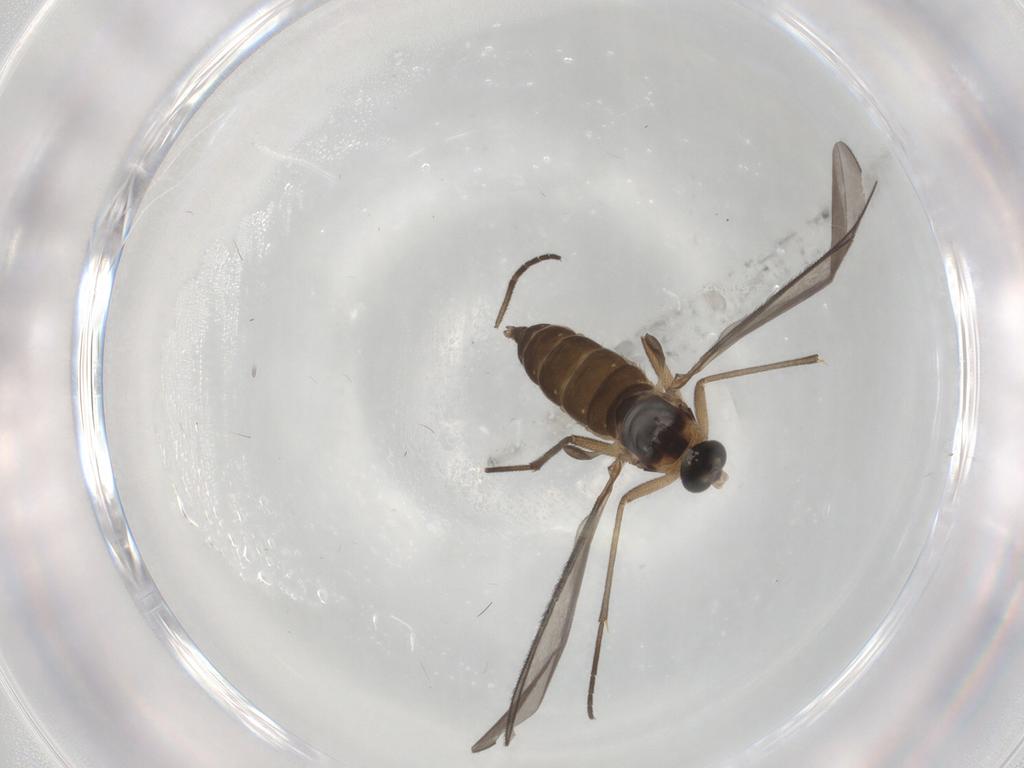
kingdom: Animalia
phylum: Arthropoda
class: Insecta
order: Diptera
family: Sciaridae
